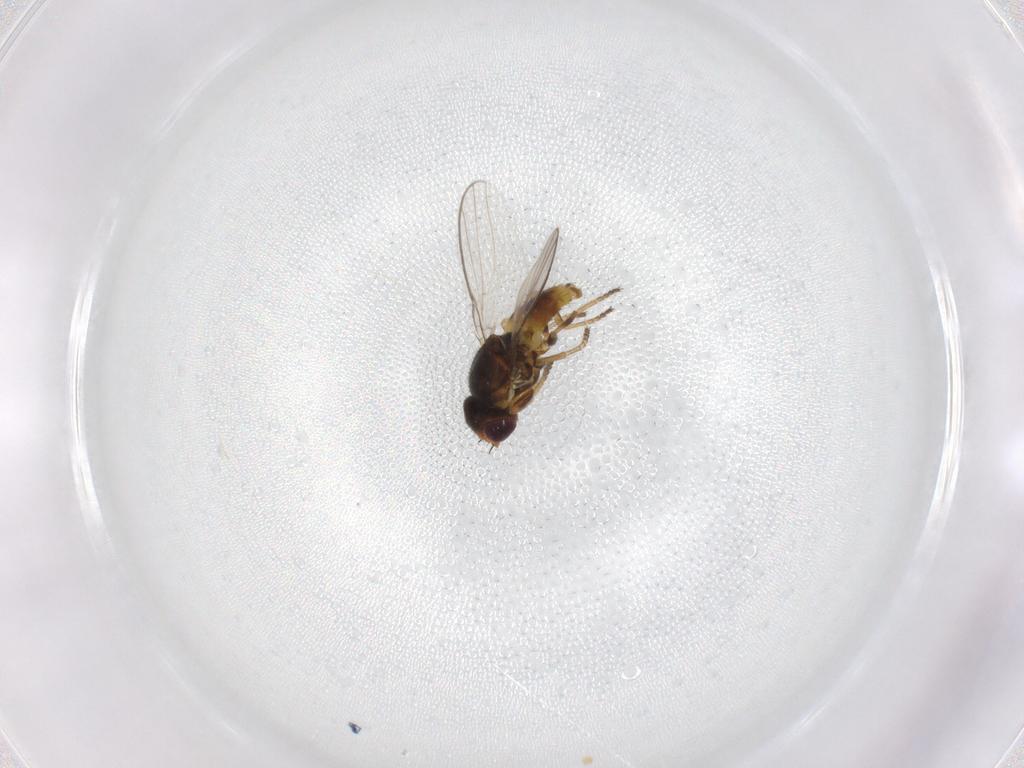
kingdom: Animalia
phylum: Arthropoda
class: Insecta
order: Diptera
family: Chloropidae
